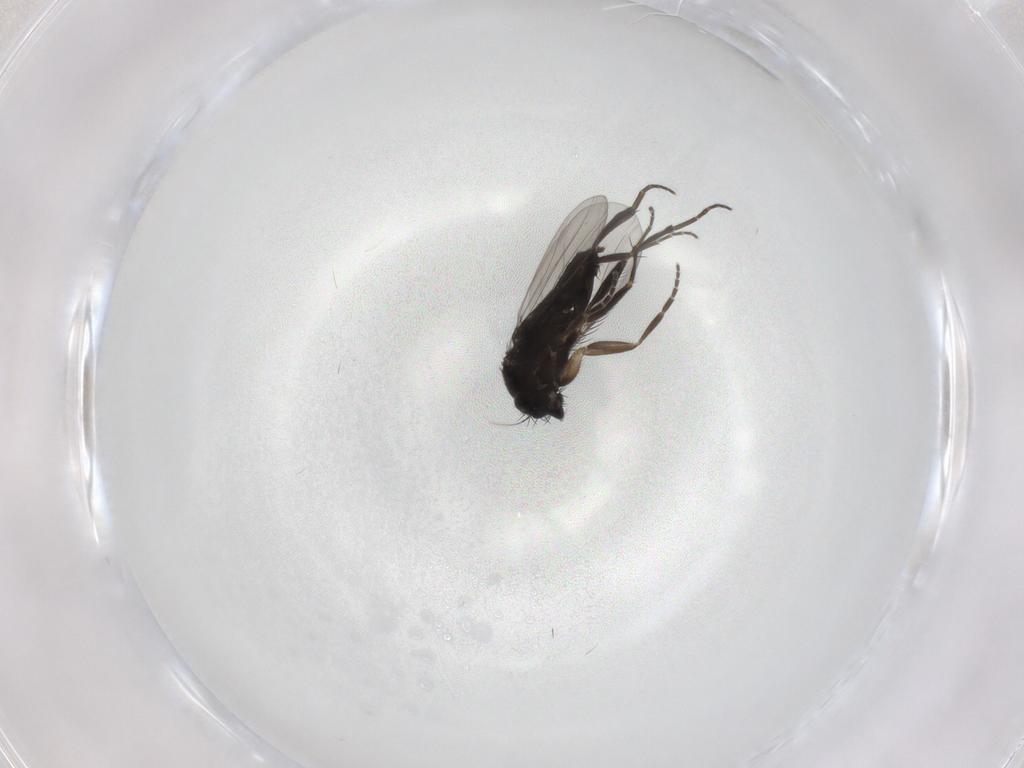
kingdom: Animalia
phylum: Arthropoda
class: Insecta
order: Diptera
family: Phoridae
